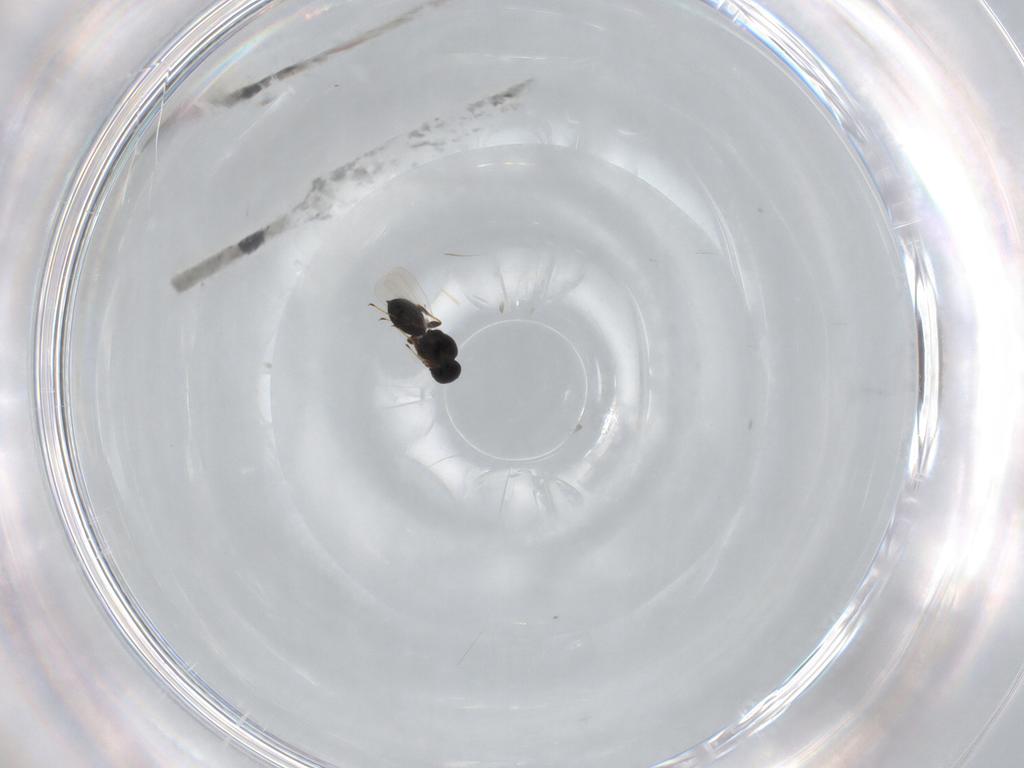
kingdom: Animalia
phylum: Arthropoda
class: Insecta
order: Hymenoptera
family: Platygastridae
